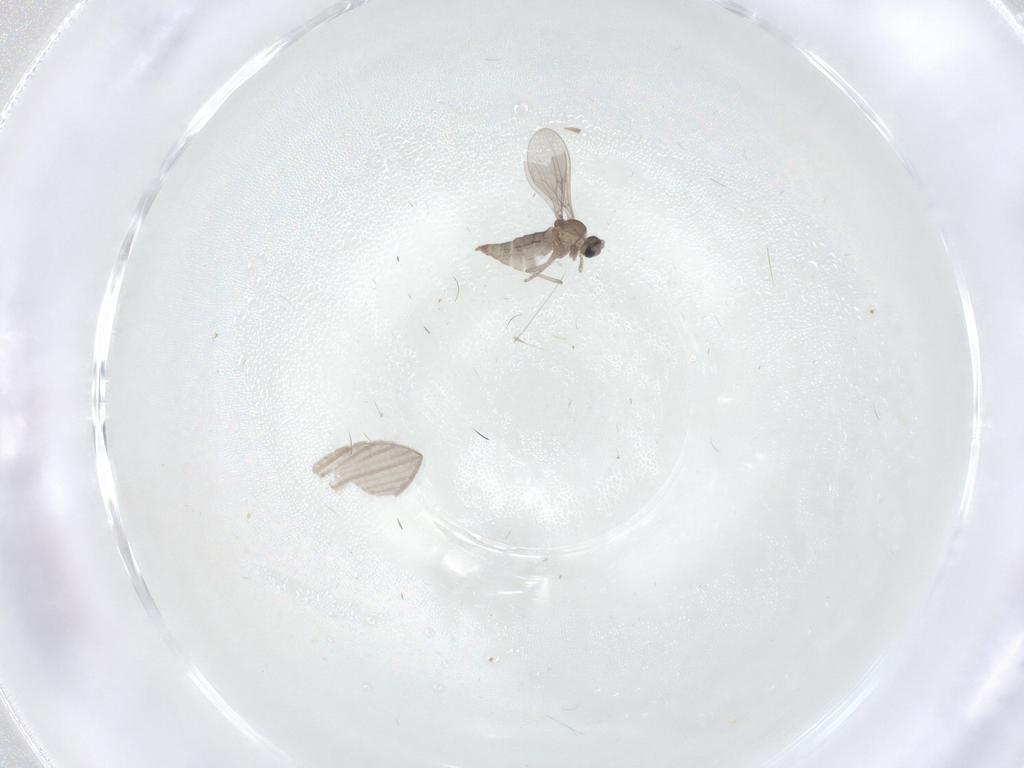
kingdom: Animalia
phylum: Arthropoda
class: Insecta
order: Diptera
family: Cecidomyiidae
